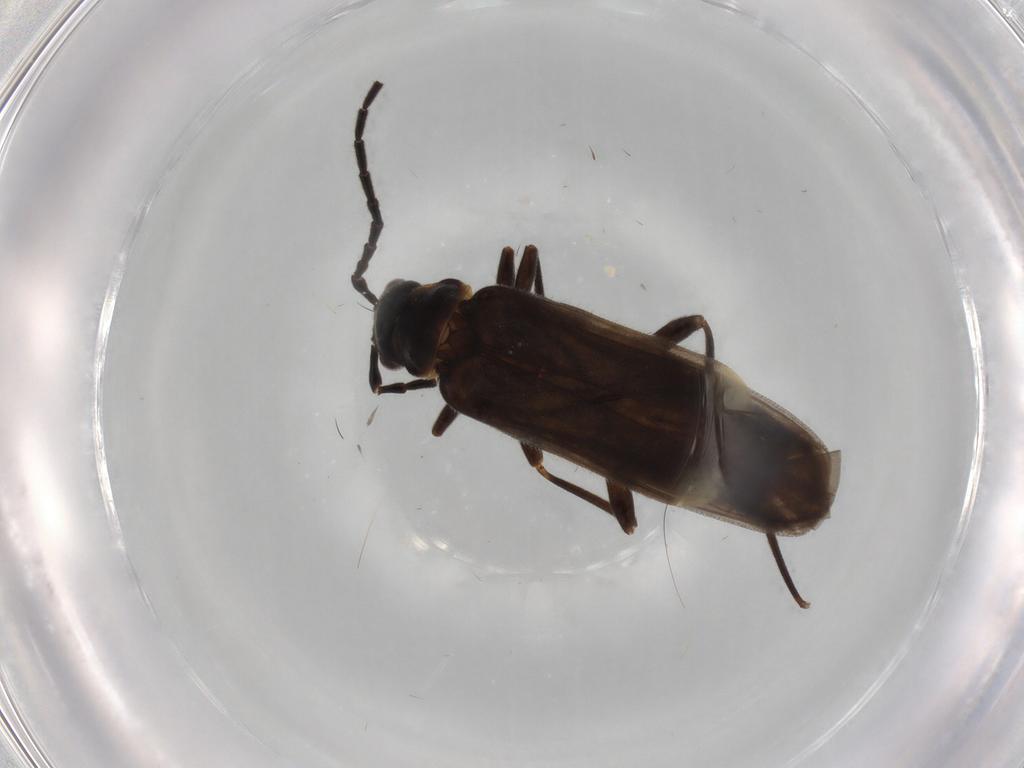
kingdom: Animalia
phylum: Arthropoda
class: Insecta
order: Coleoptera
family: Cantharidae
